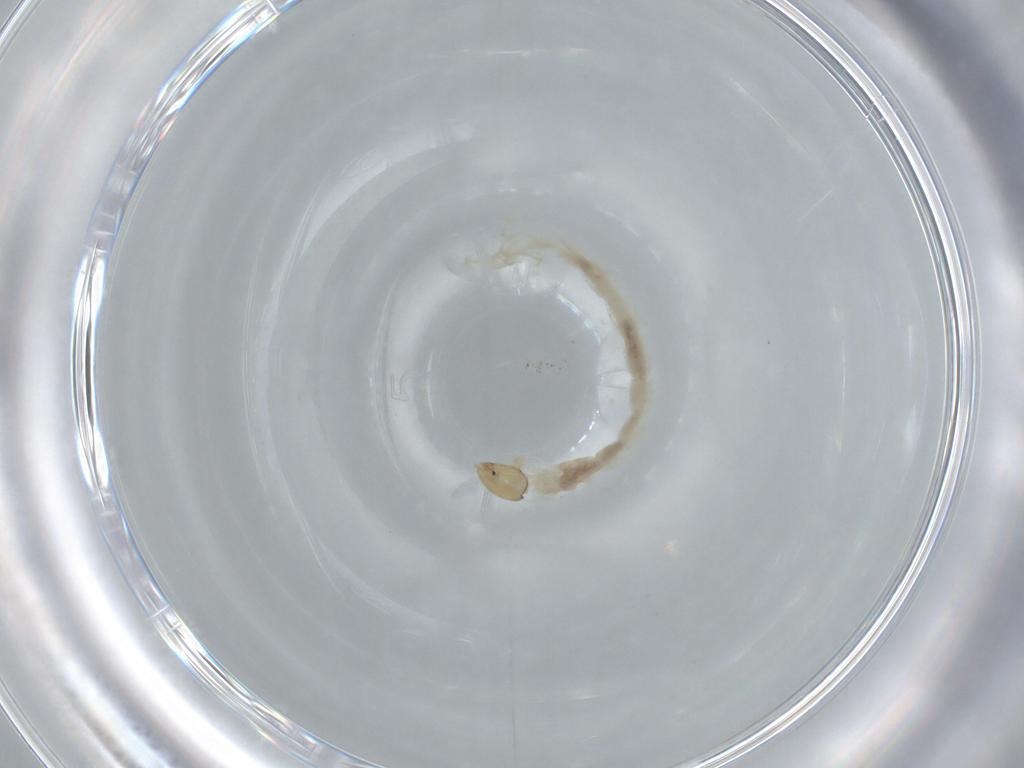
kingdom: Animalia
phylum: Arthropoda
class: Insecta
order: Diptera
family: Chironomidae
